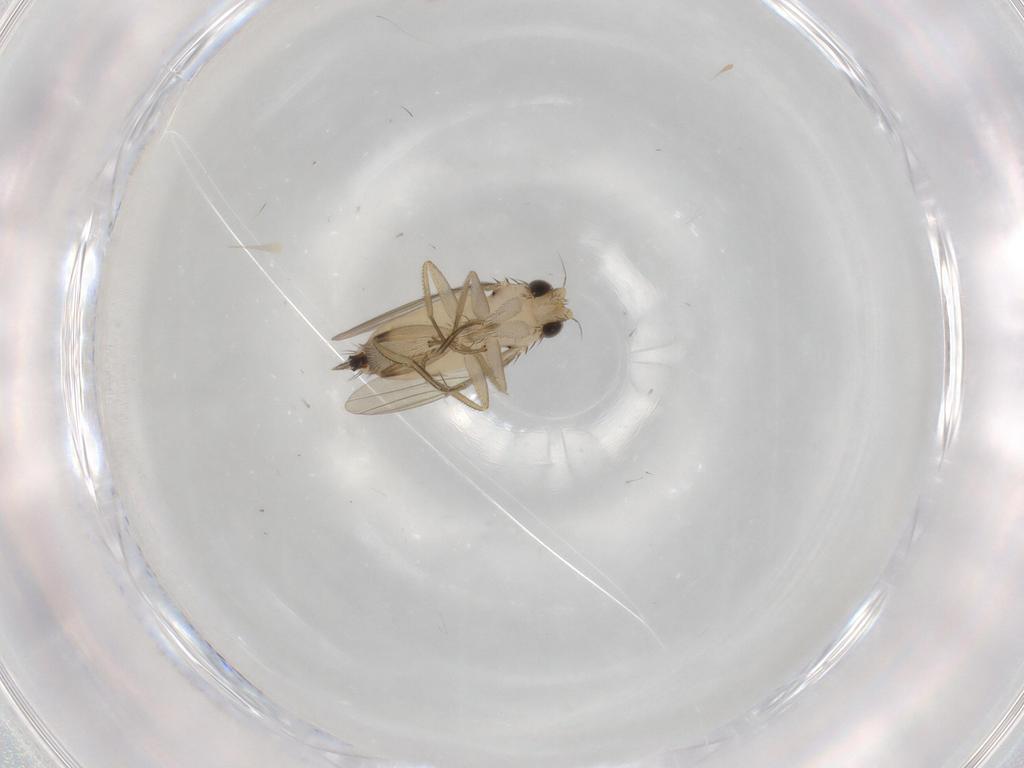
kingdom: Animalia
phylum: Arthropoda
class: Insecta
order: Diptera
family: Phoridae
